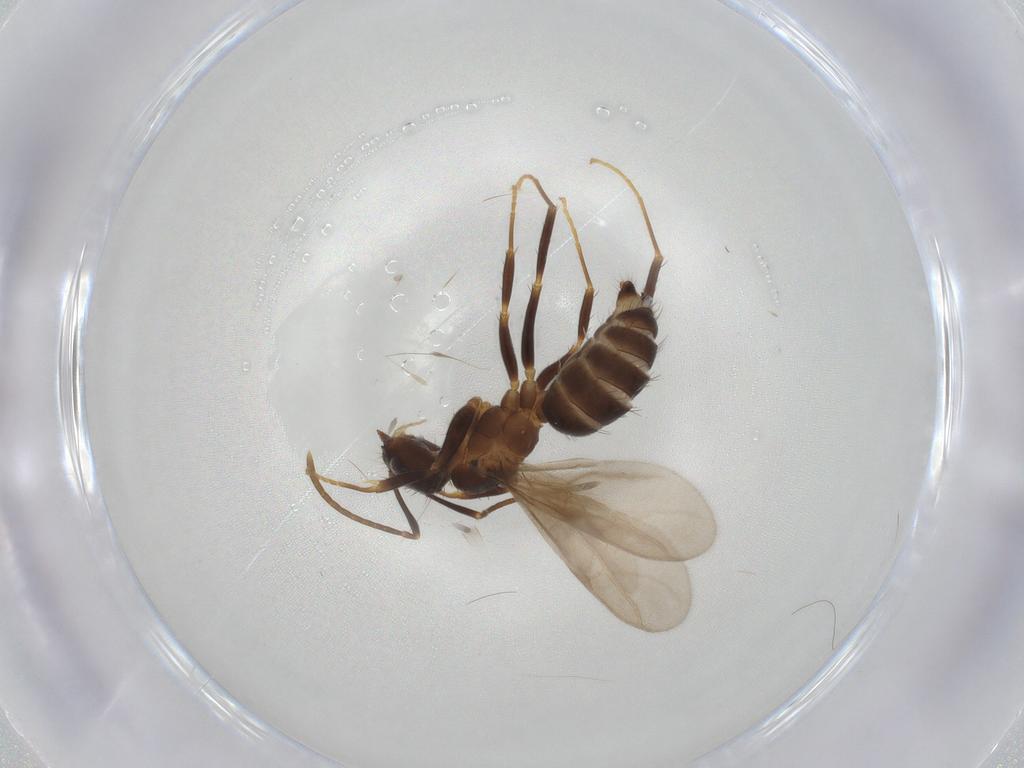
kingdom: Animalia
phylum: Arthropoda
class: Insecta
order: Hymenoptera
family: Formicidae
